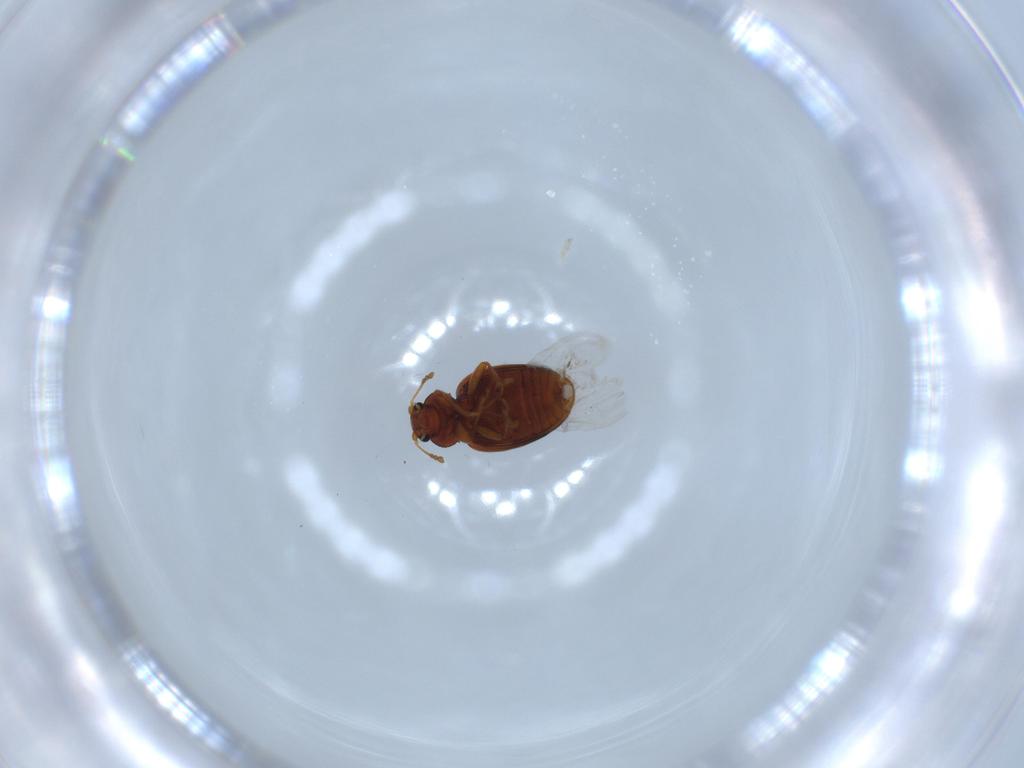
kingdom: Animalia
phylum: Arthropoda
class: Insecta
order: Coleoptera
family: Latridiidae
